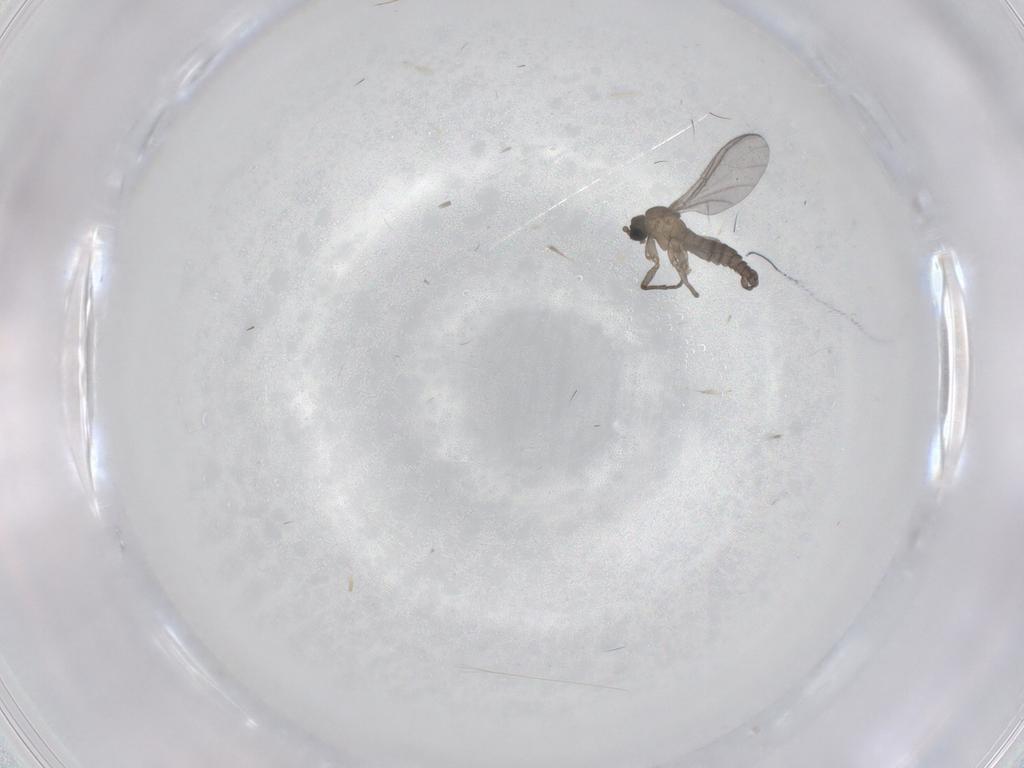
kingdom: Animalia
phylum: Arthropoda
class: Insecta
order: Diptera
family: Sciaridae
